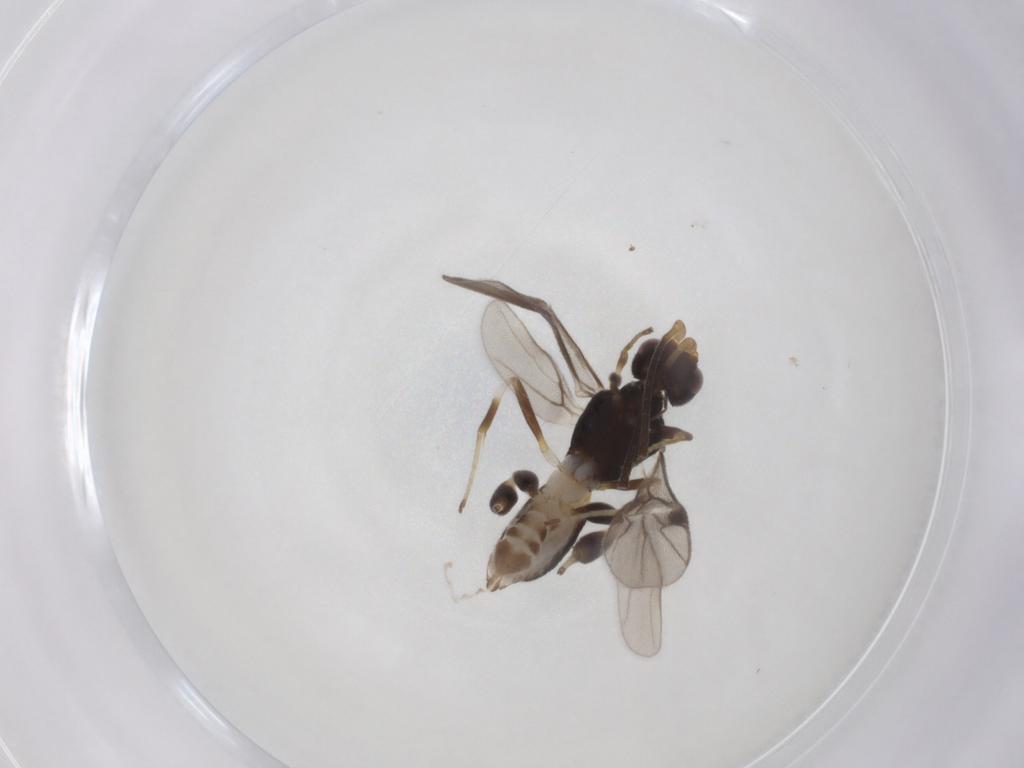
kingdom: Animalia
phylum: Arthropoda
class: Insecta
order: Hymenoptera
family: Braconidae
